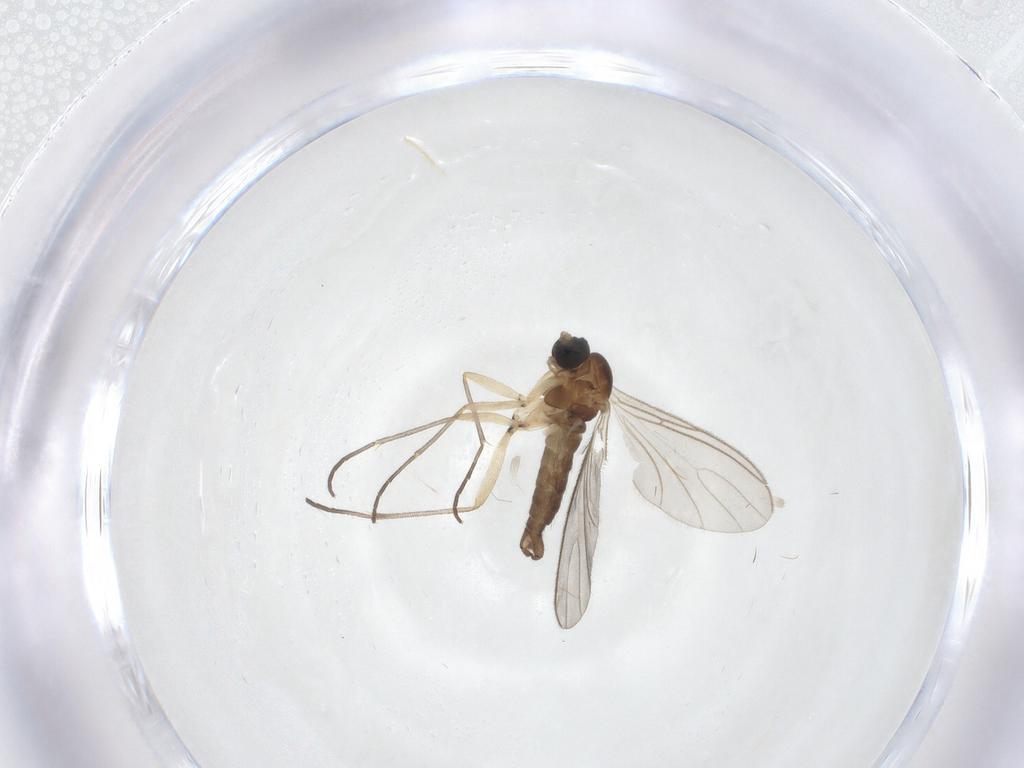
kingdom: Animalia
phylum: Arthropoda
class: Insecta
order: Diptera
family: Sciaridae
